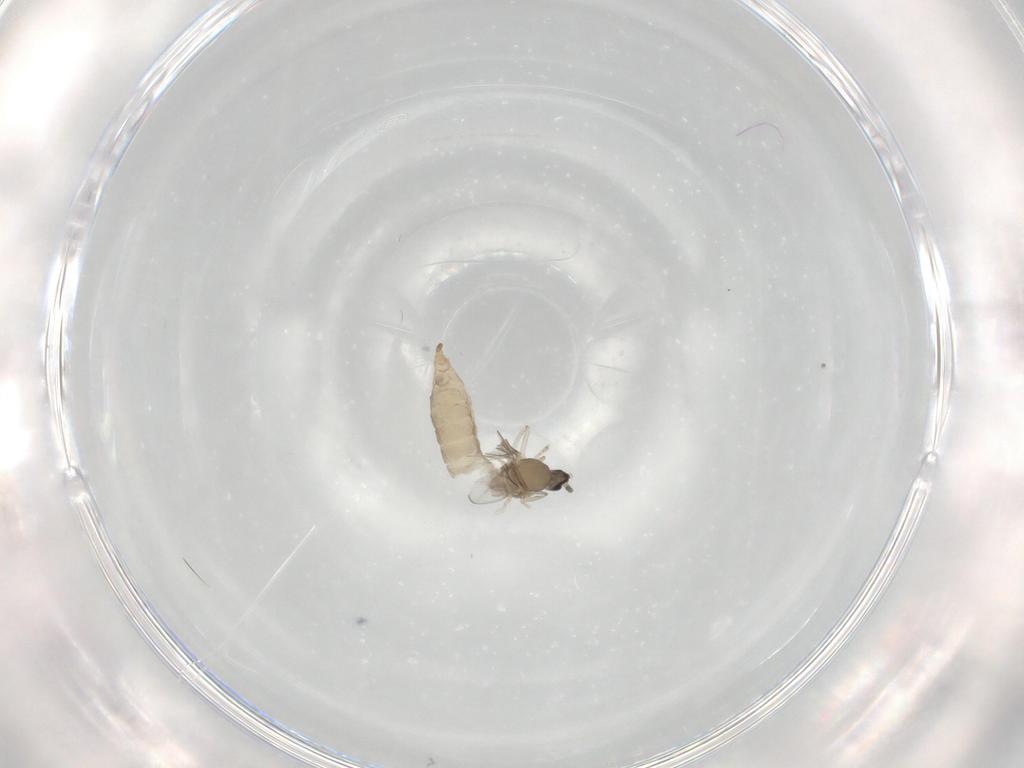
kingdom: Animalia
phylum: Arthropoda
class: Insecta
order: Diptera
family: Cecidomyiidae
